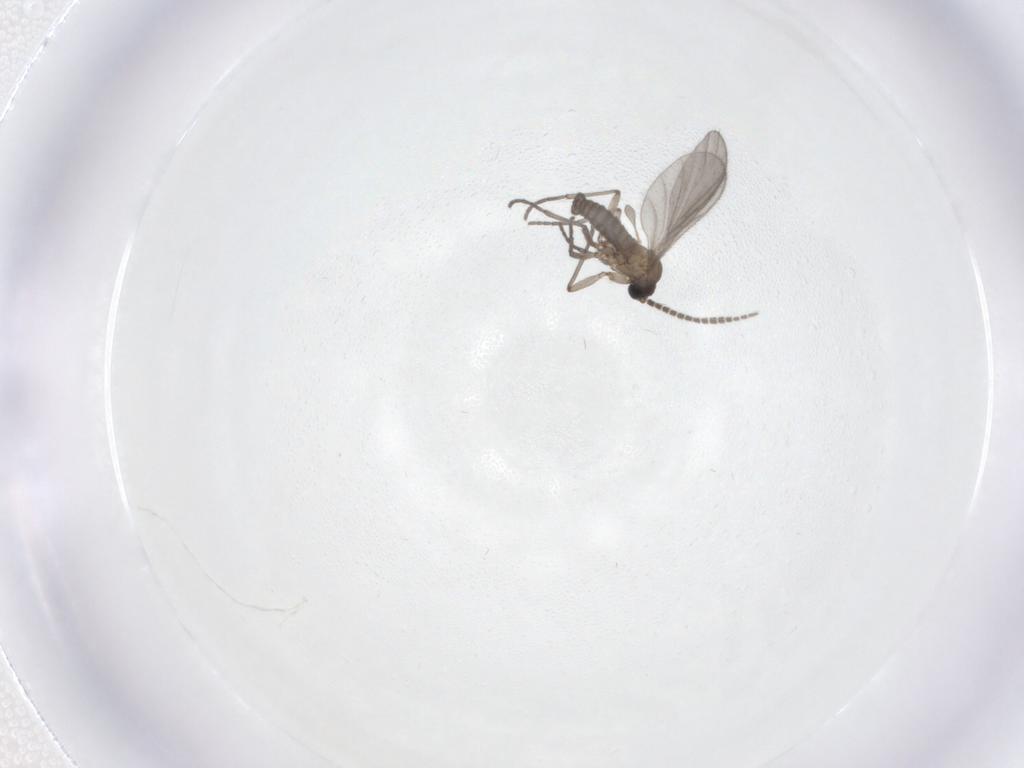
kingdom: Animalia
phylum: Arthropoda
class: Insecta
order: Diptera
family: Sciaridae
